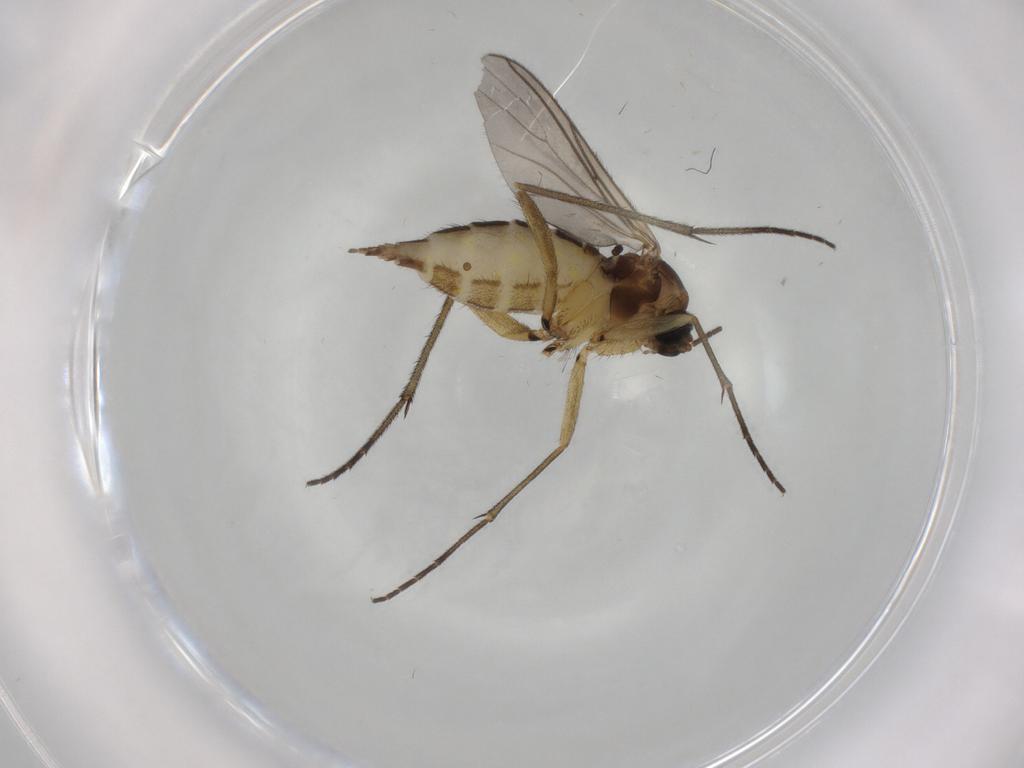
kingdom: Animalia
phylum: Arthropoda
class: Insecta
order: Diptera
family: Sciaridae
